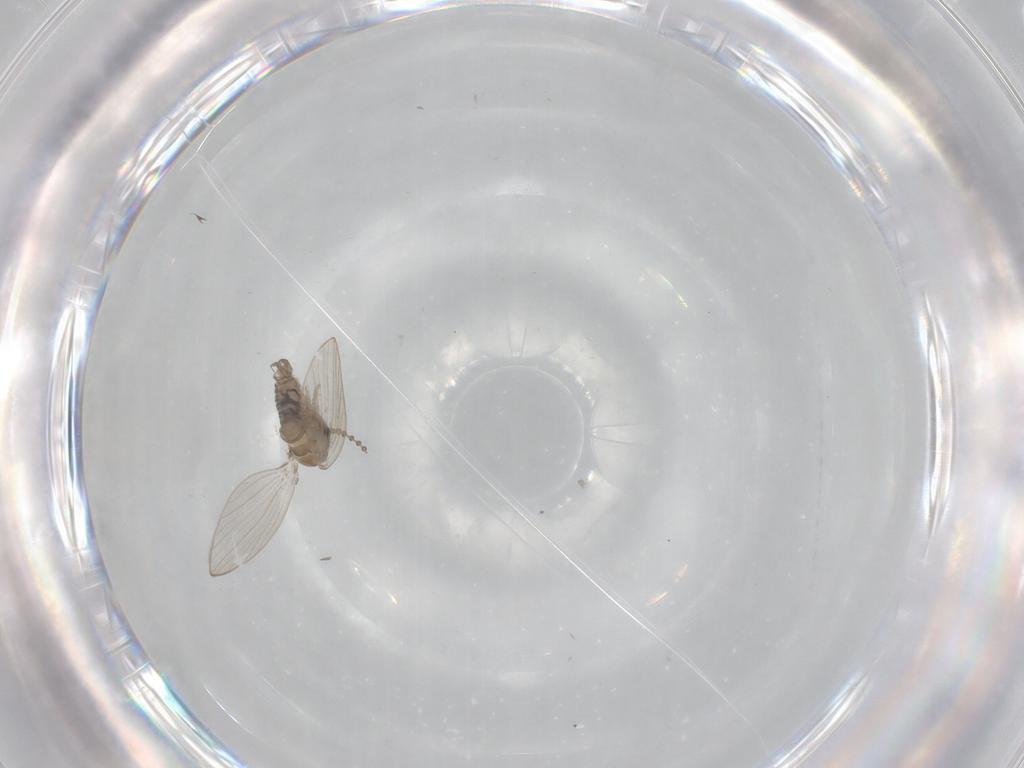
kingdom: Animalia
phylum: Arthropoda
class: Insecta
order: Diptera
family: Psychodidae
